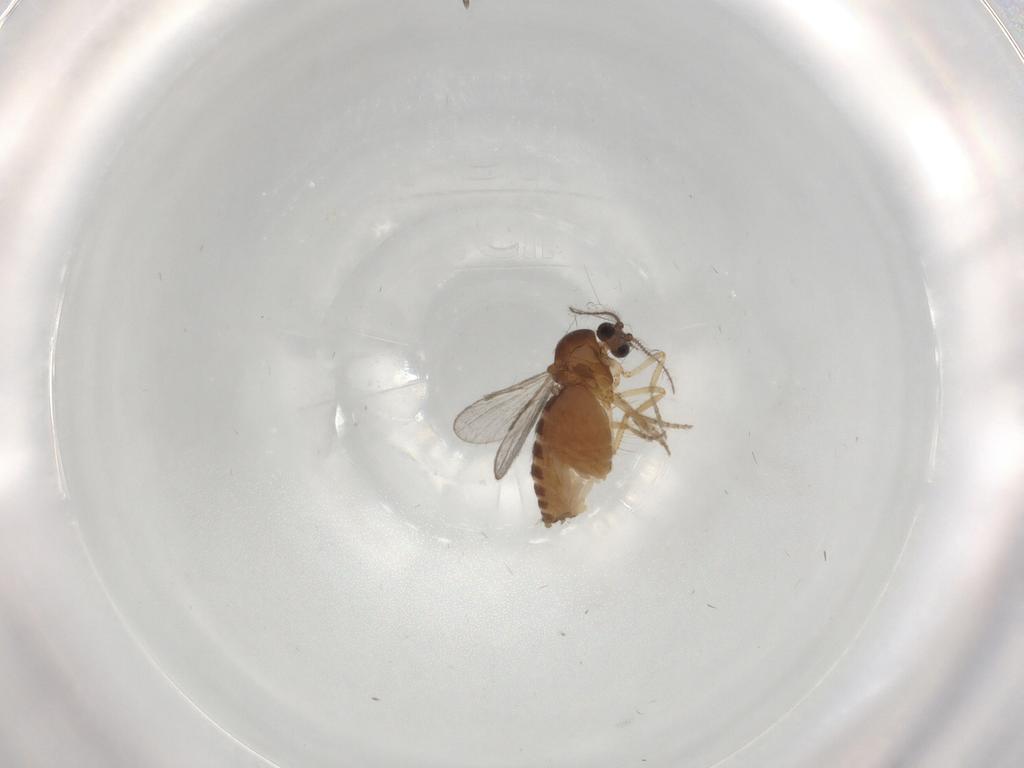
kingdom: Animalia
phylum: Arthropoda
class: Insecta
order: Diptera
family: Ceratopogonidae
